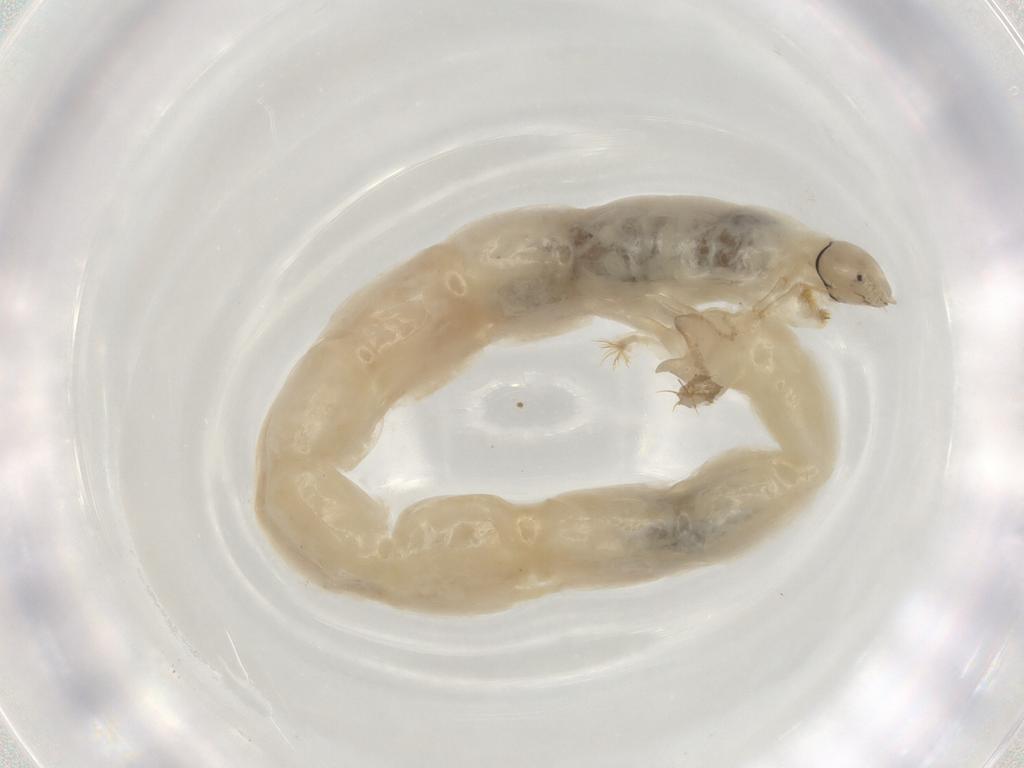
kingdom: Animalia
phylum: Arthropoda
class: Insecta
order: Diptera
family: Chironomidae
